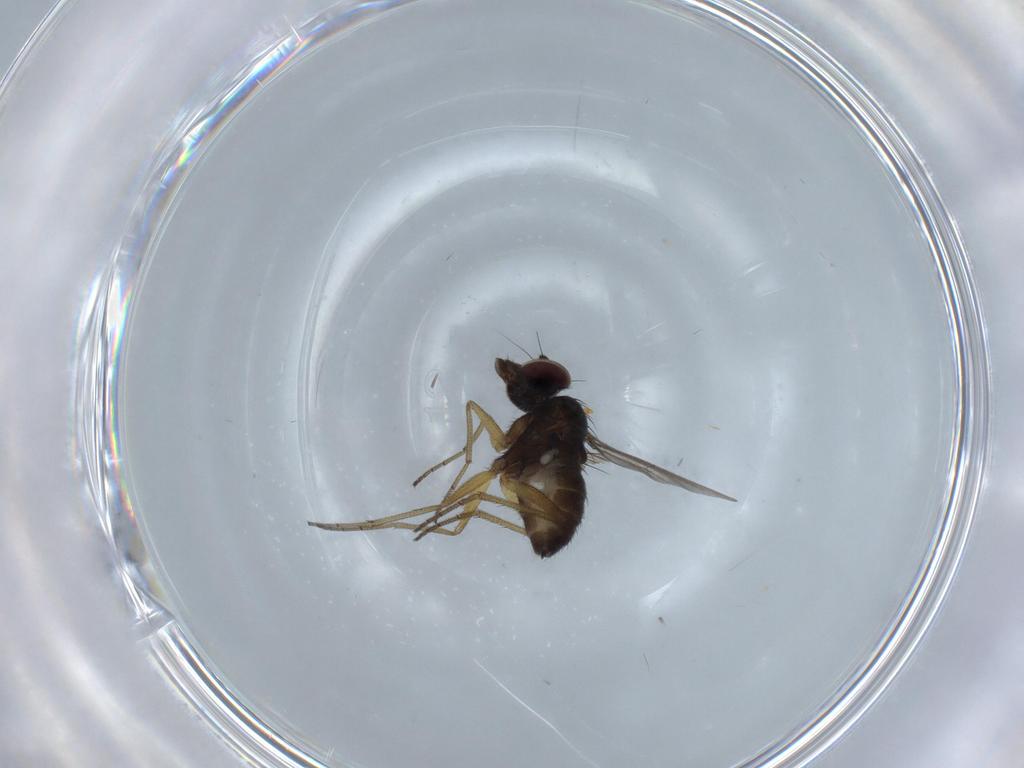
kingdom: Animalia
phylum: Arthropoda
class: Insecta
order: Diptera
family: Dolichopodidae
